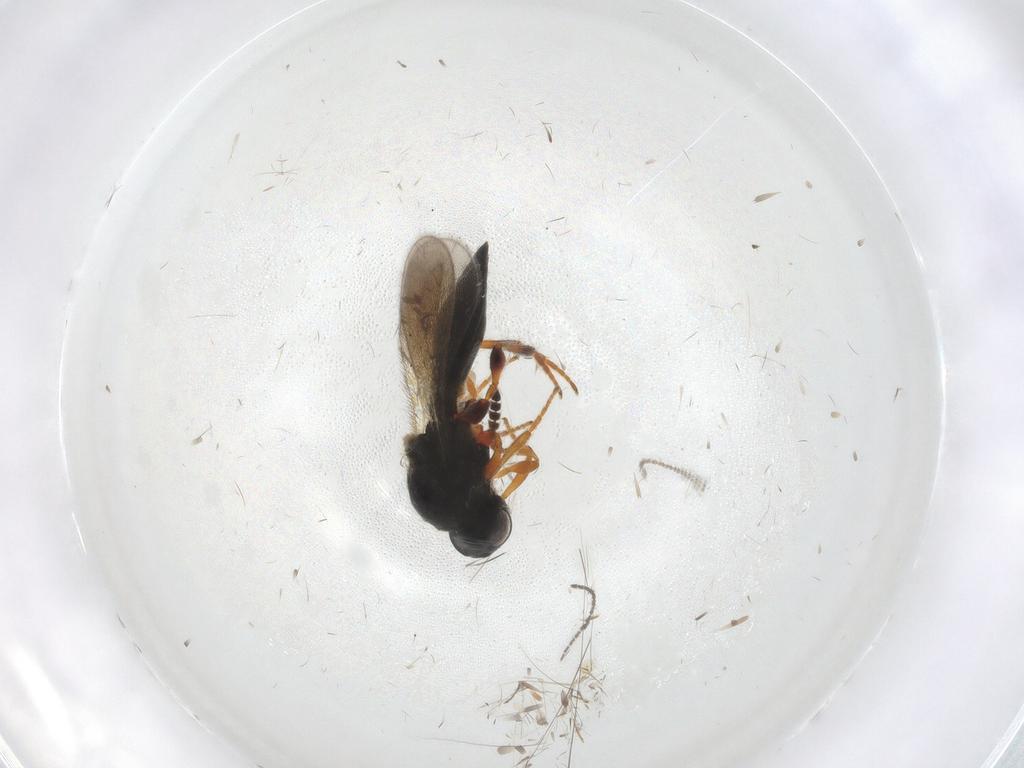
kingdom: Animalia
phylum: Arthropoda
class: Insecta
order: Hymenoptera
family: Platygastridae
